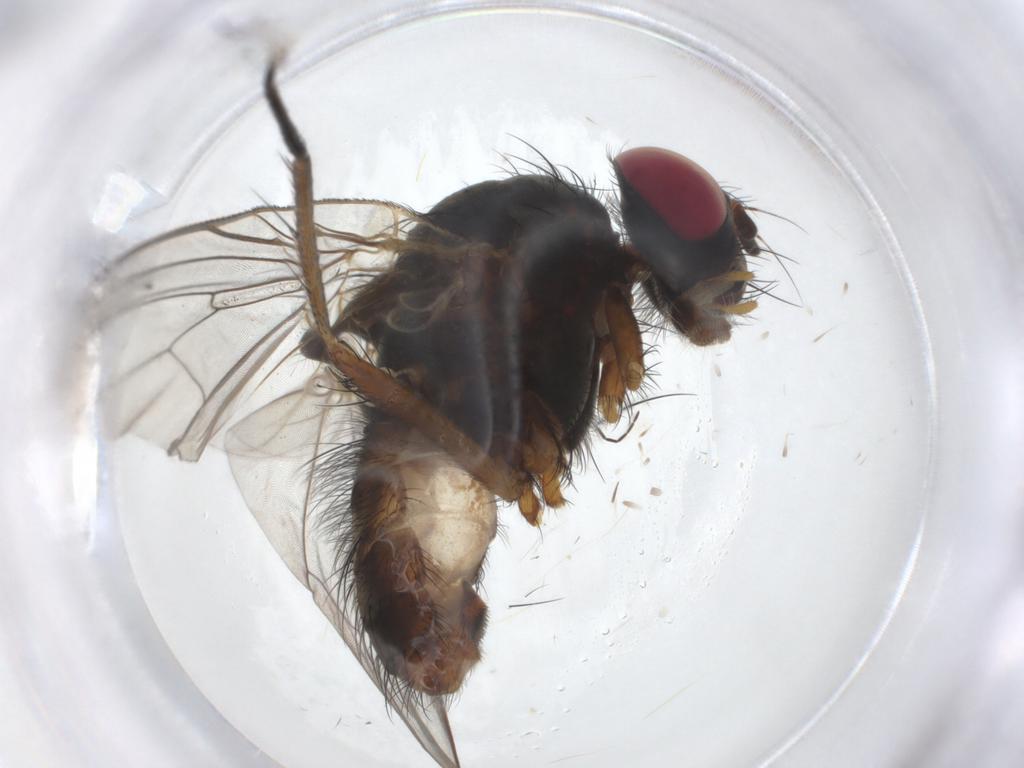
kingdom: Animalia
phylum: Arthropoda
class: Insecta
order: Diptera
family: Anthomyiidae
